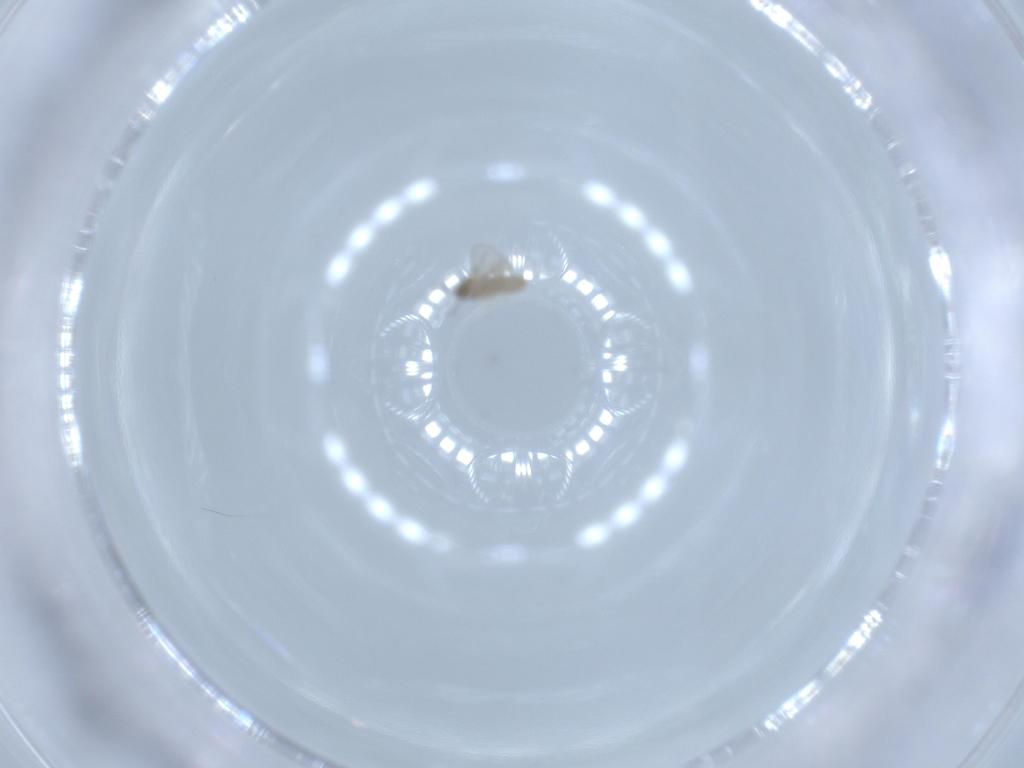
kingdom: Animalia
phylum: Arthropoda
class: Insecta
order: Diptera
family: Cecidomyiidae
